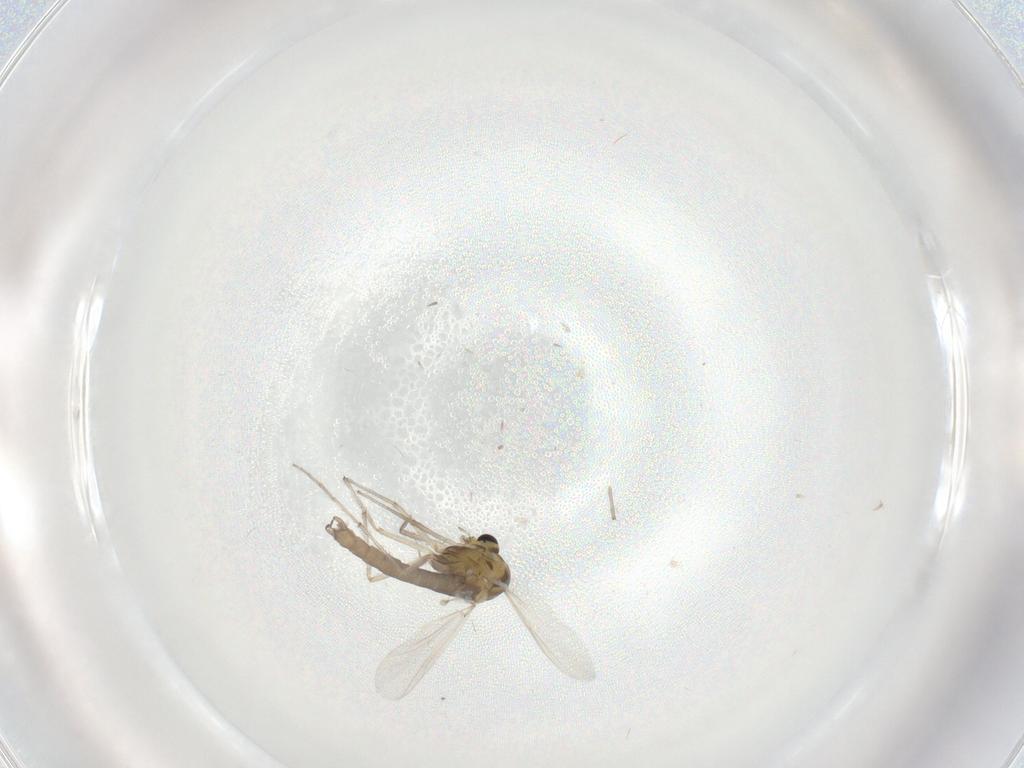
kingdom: Animalia
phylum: Arthropoda
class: Insecta
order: Diptera
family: Chironomidae
